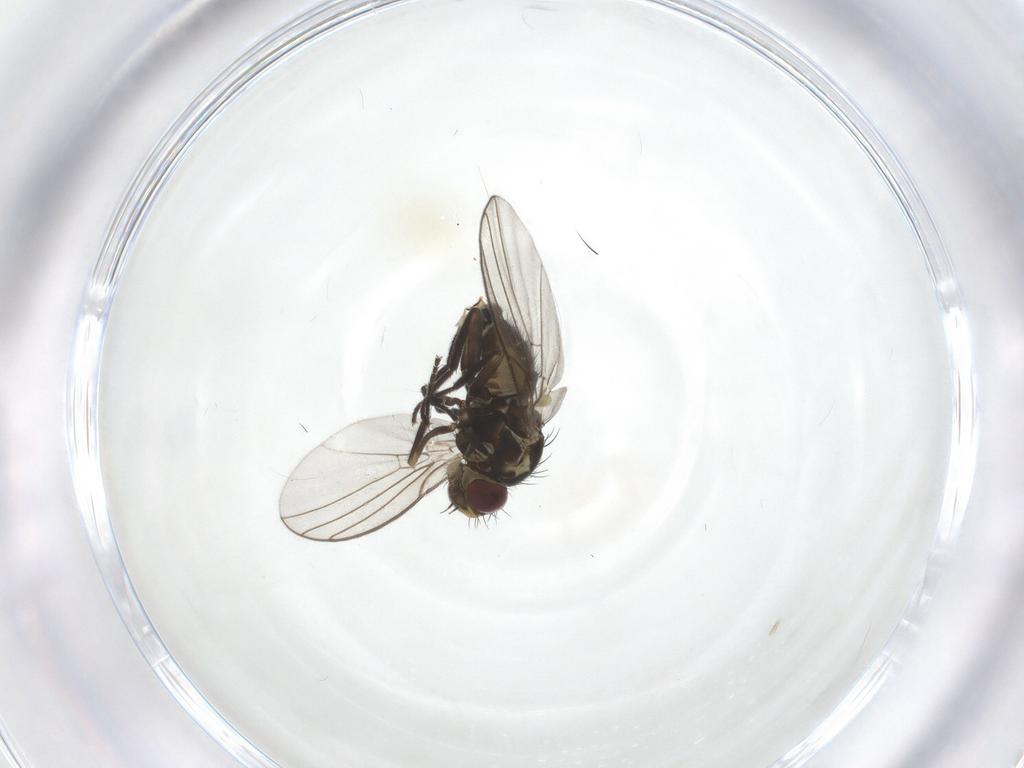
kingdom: Animalia
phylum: Arthropoda
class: Insecta
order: Diptera
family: Agromyzidae
